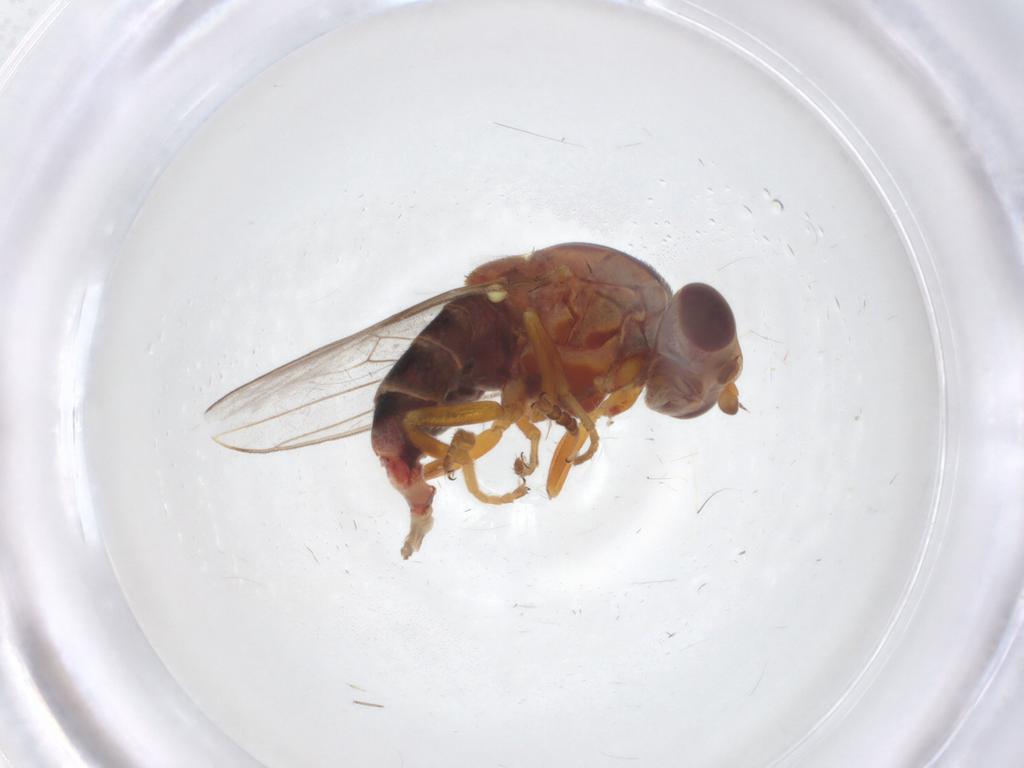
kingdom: Animalia
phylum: Arthropoda
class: Insecta
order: Diptera
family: Chloropidae
